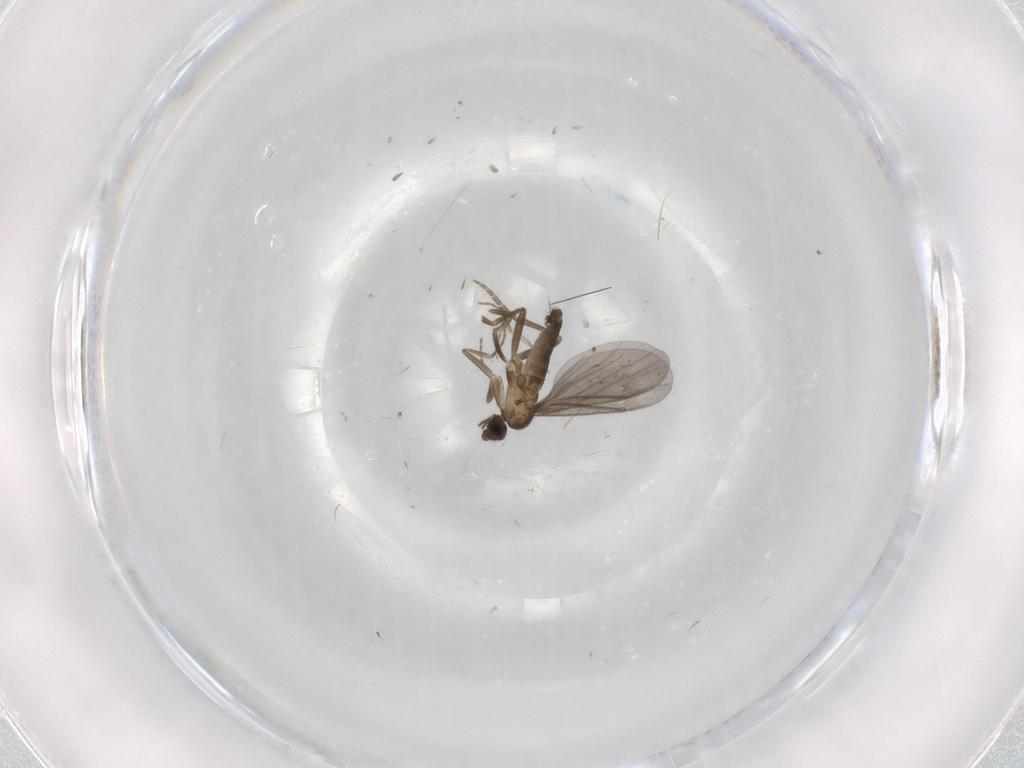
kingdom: Animalia
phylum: Arthropoda
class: Insecta
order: Diptera
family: Phoridae
